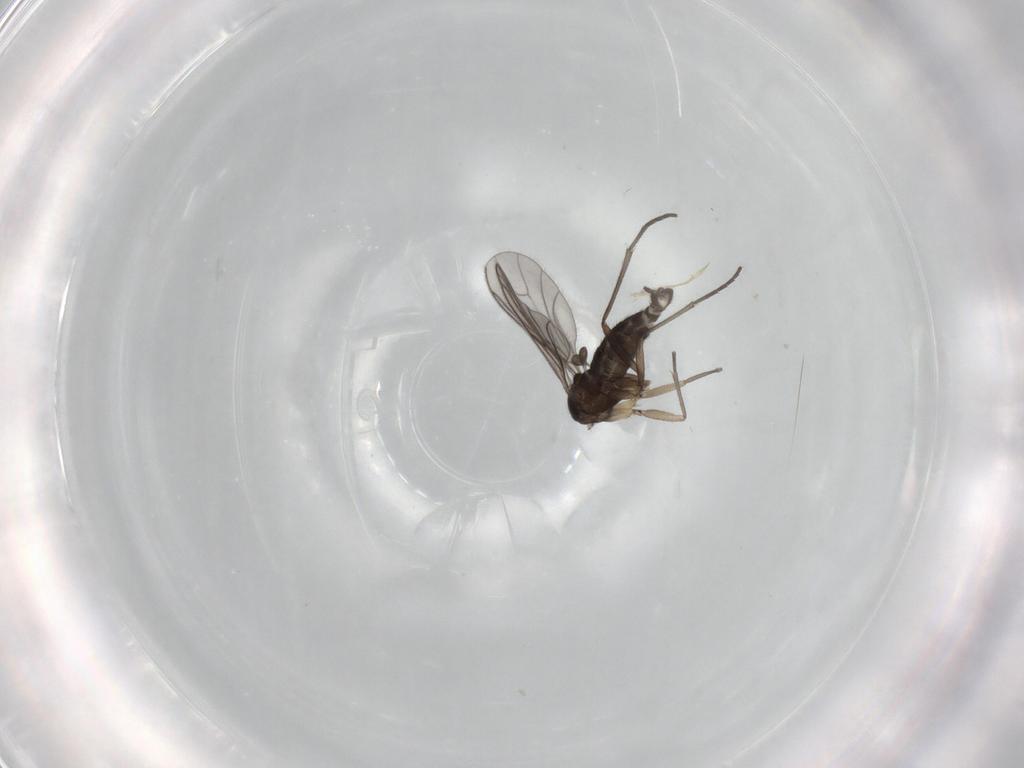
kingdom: Animalia
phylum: Arthropoda
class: Insecta
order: Diptera
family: Sciaridae
